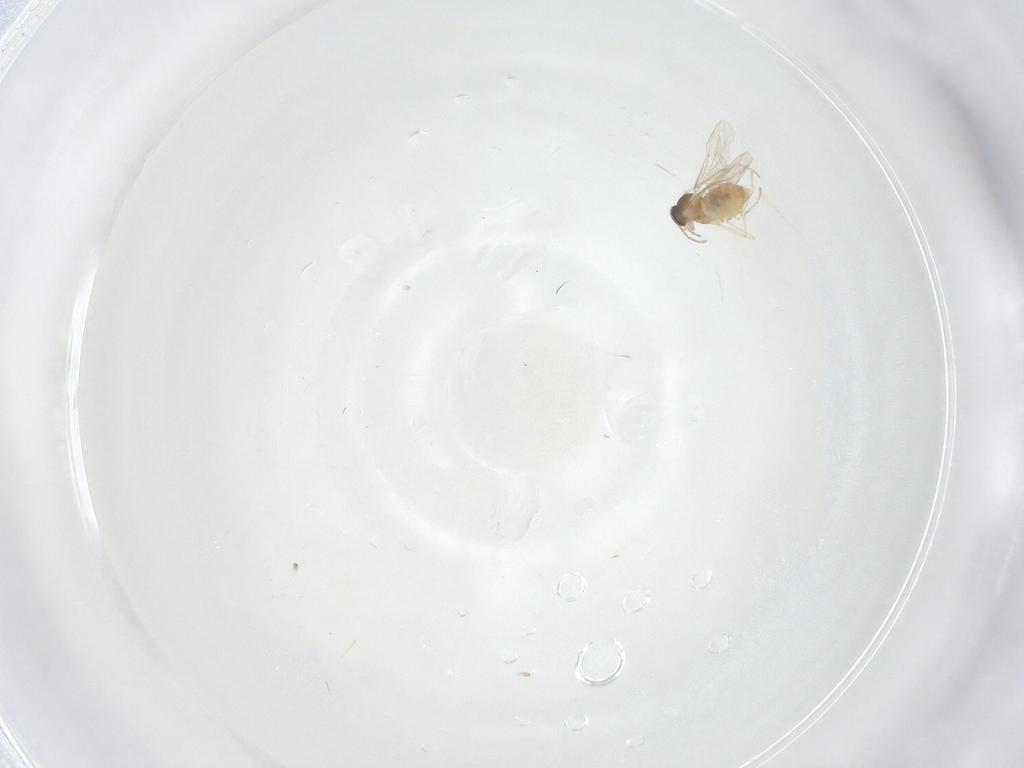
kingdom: Animalia
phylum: Arthropoda
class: Insecta
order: Diptera
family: Cecidomyiidae
